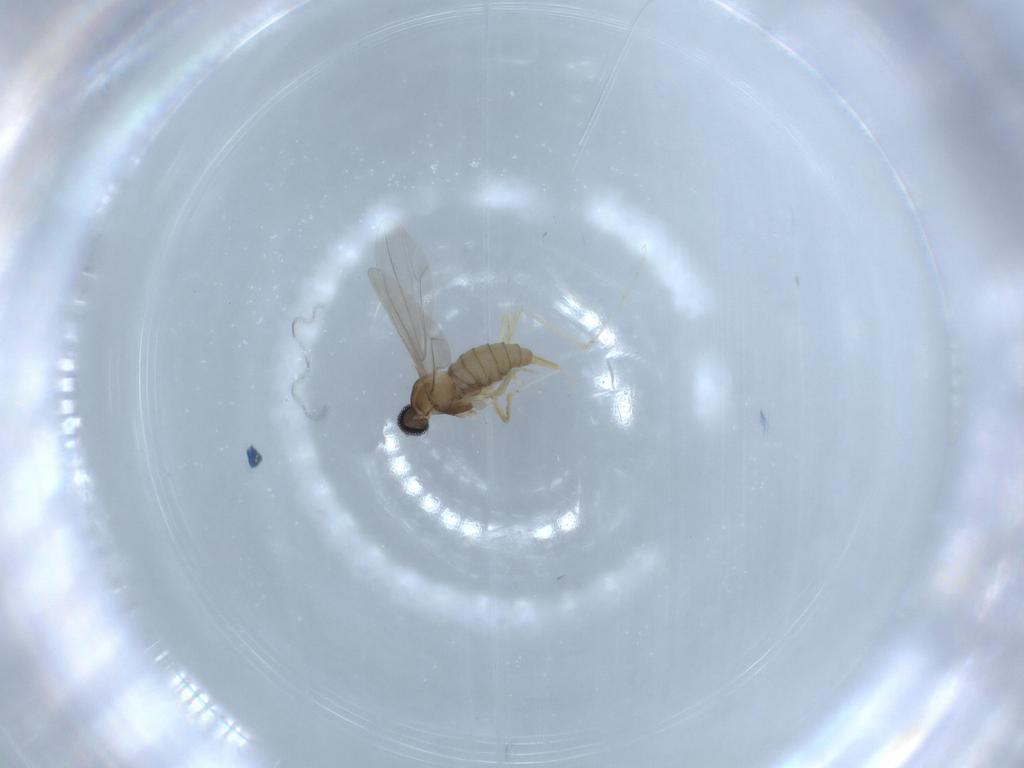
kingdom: Animalia
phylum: Arthropoda
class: Insecta
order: Diptera
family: Cecidomyiidae
